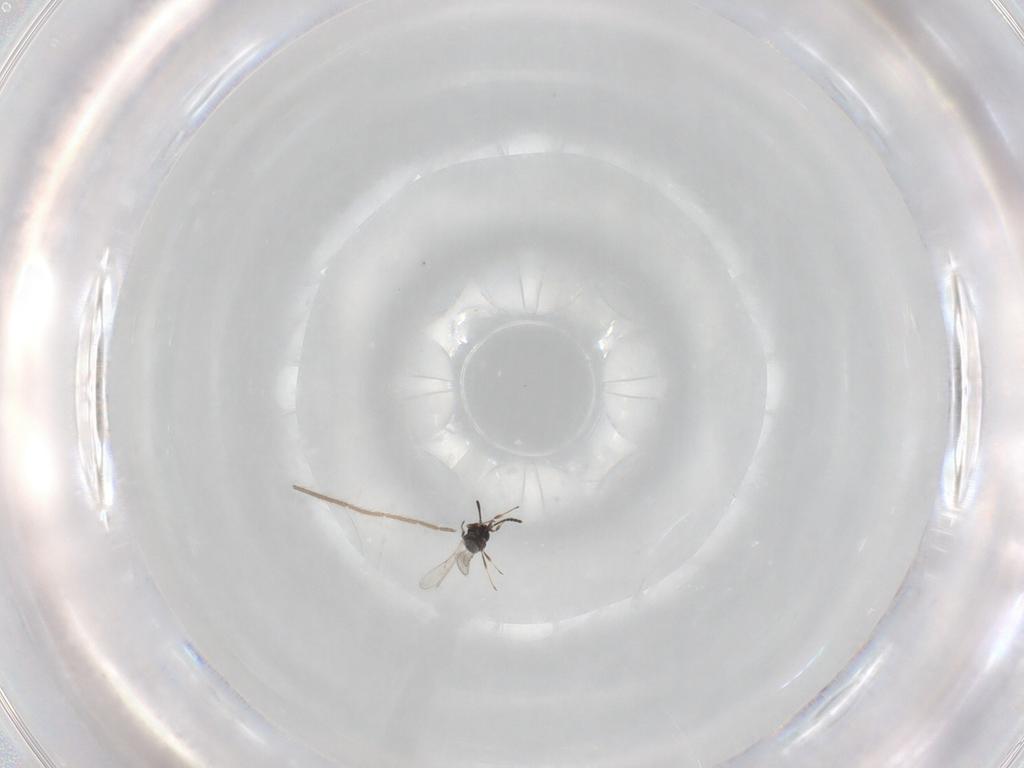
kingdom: Animalia
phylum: Arthropoda
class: Insecta
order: Hymenoptera
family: Scelionidae
